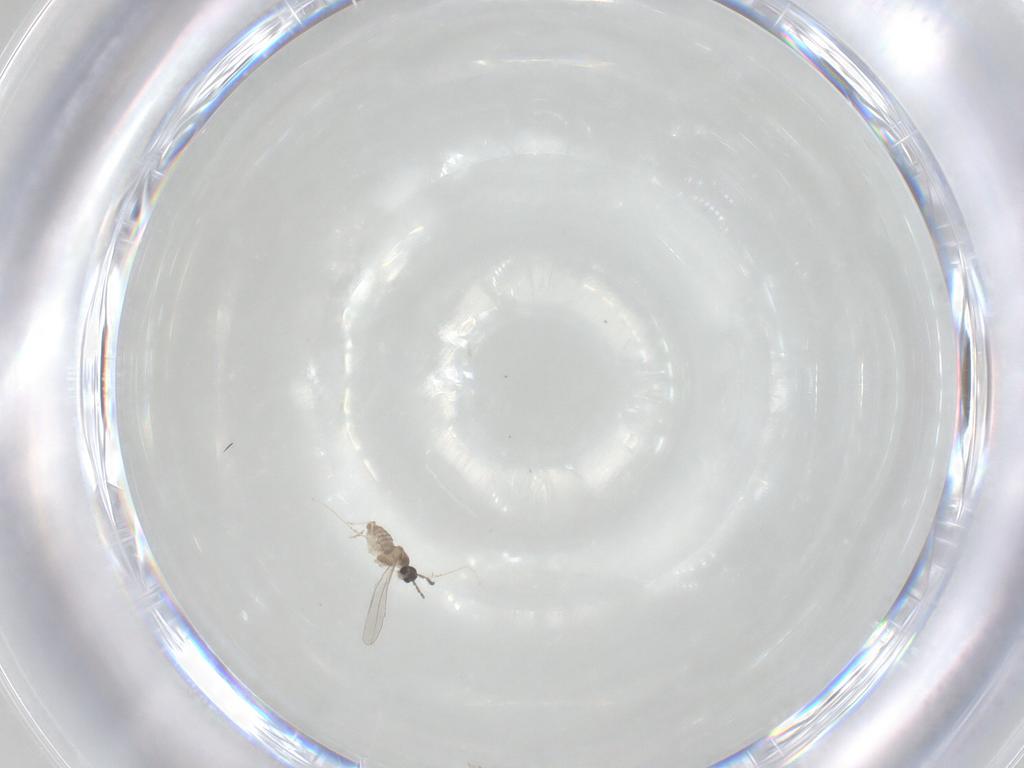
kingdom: Animalia
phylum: Arthropoda
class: Insecta
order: Diptera
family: Cecidomyiidae
